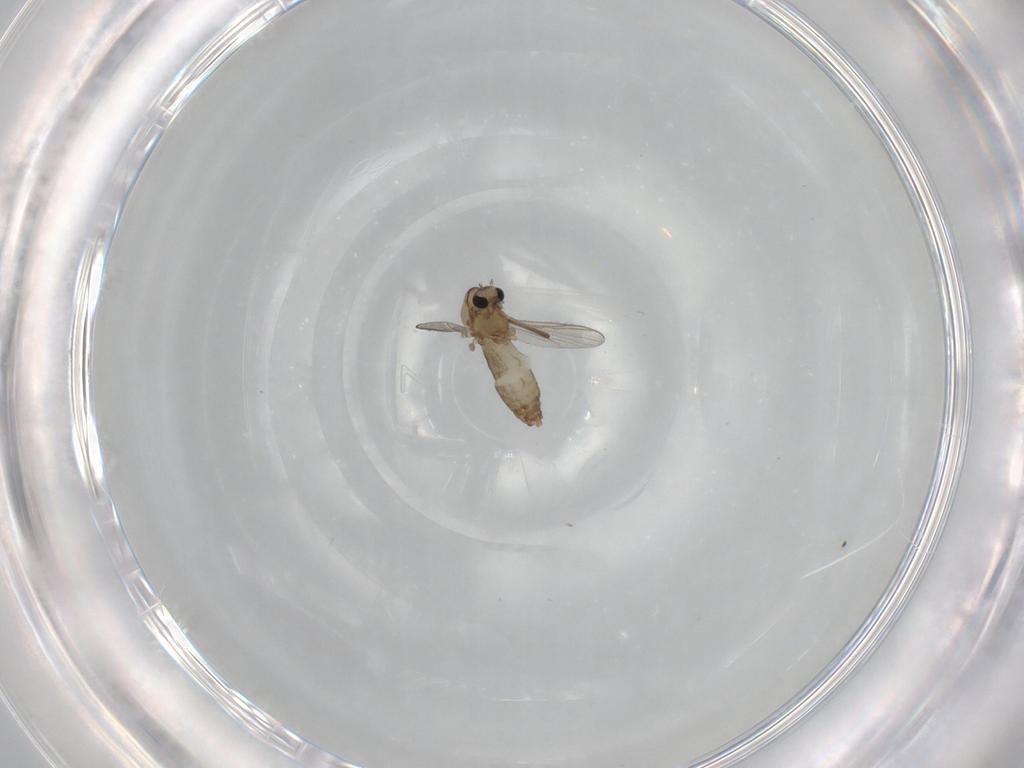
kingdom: Animalia
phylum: Arthropoda
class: Insecta
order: Diptera
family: Chironomidae
